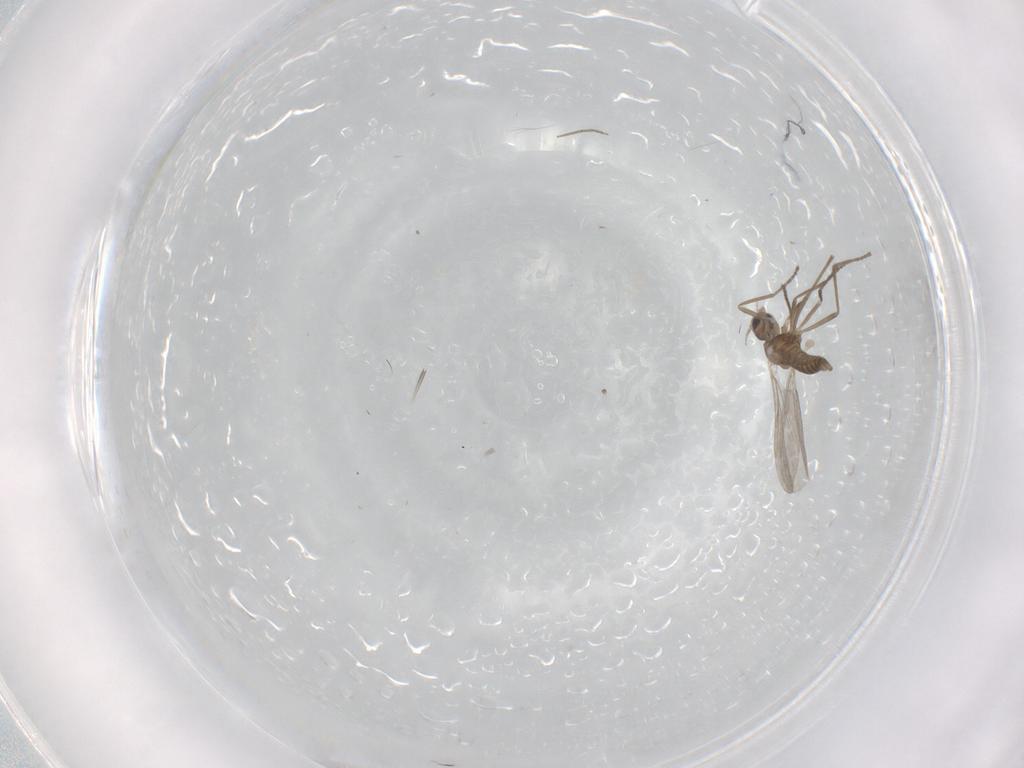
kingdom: Animalia
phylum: Arthropoda
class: Insecta
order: Diptera
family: Cecidomyiidae
